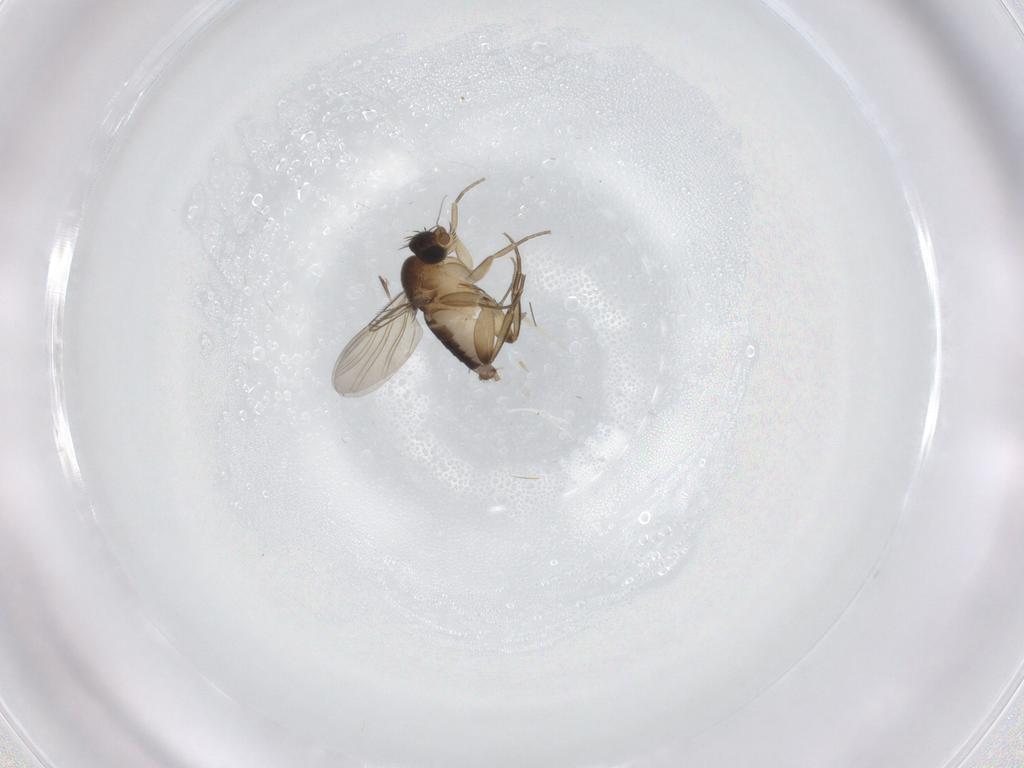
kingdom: Animalia
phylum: Arthropoda
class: Insecta
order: Diptera
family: Phoridae
